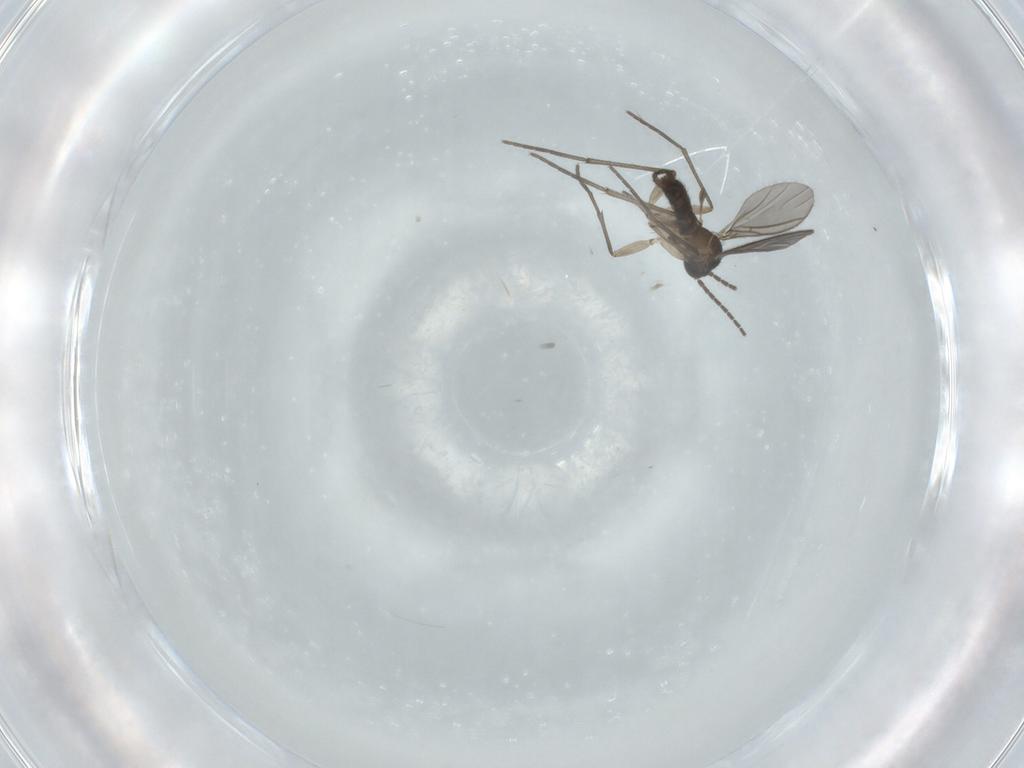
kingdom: Animalia
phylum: Arthropoda
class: Insecta
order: Diptera
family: Sciaridae
